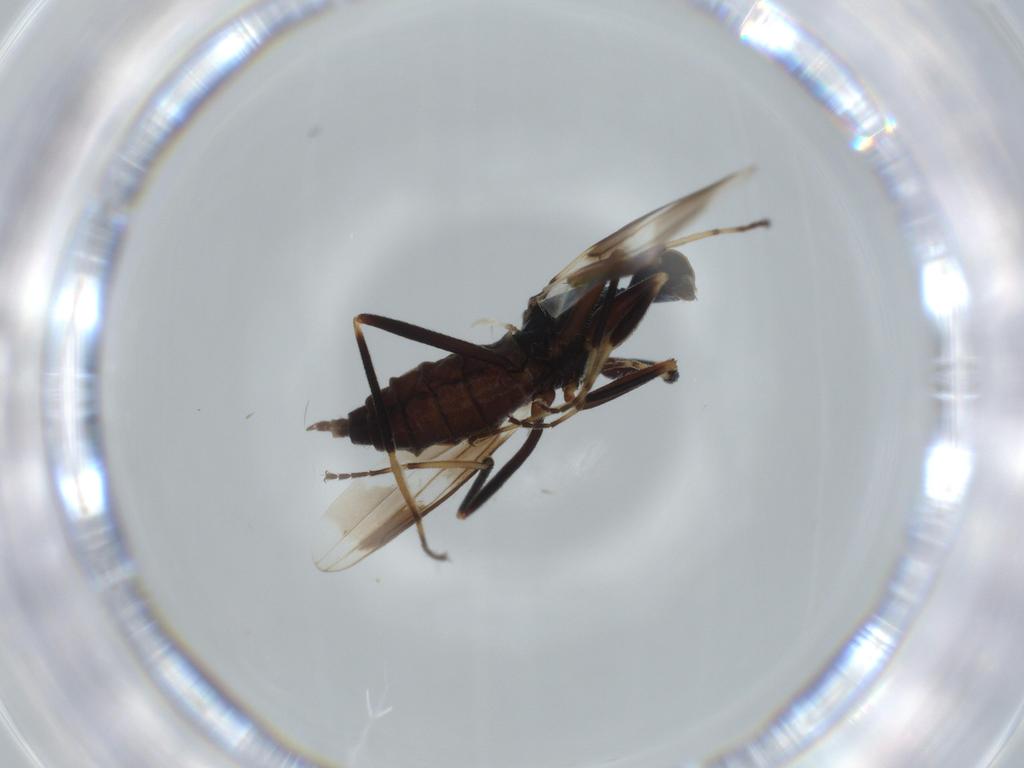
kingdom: Animalia
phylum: Arthropoda
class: Insecta
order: Diptera
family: Hybotidae
